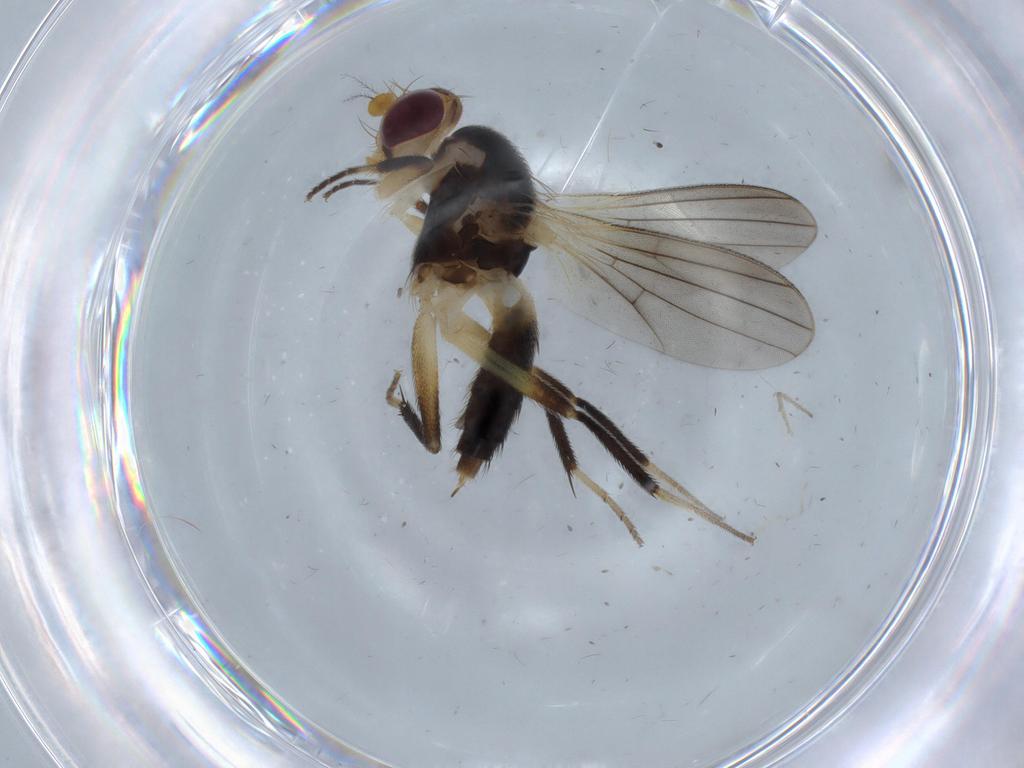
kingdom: Animalia
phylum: Arthropoda
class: Insecta
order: Diptera
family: Clusiidae
